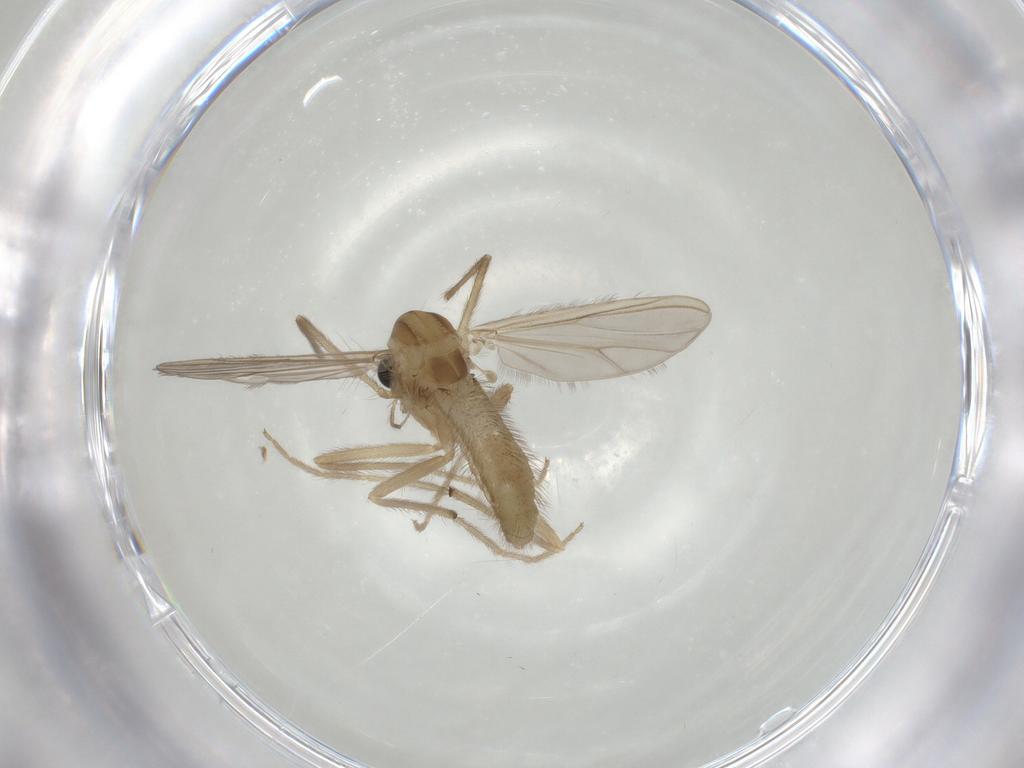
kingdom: Animalia
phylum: Arthropoda
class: Insecta
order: Diptera
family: Chironomidae
